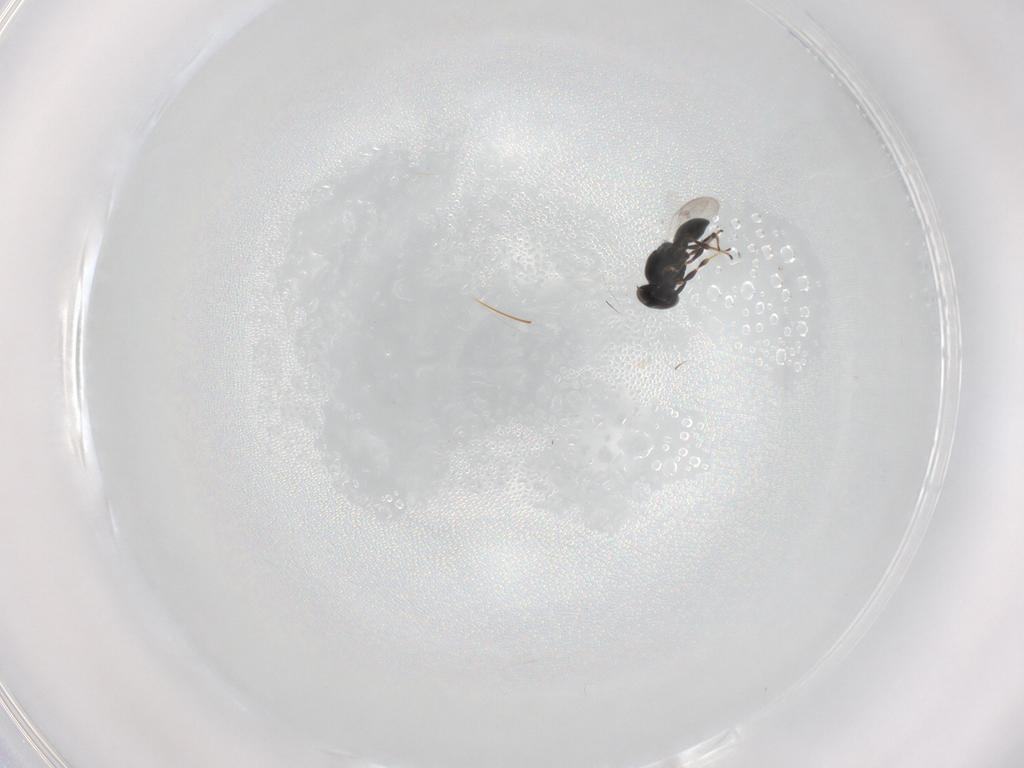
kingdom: Animalia
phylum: Arthropoda
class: Insecta
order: Hymenoptera
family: Platygastridae
